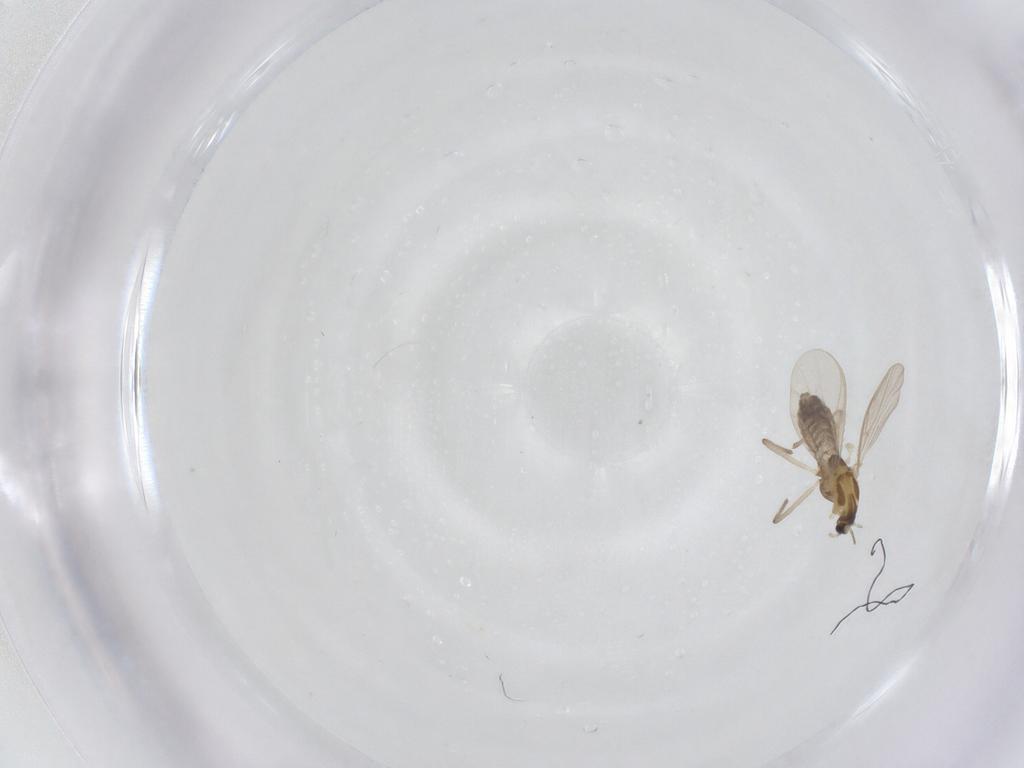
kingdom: Animalia
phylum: Arthropoda
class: Insecta
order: Diptera
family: Chironomidae
